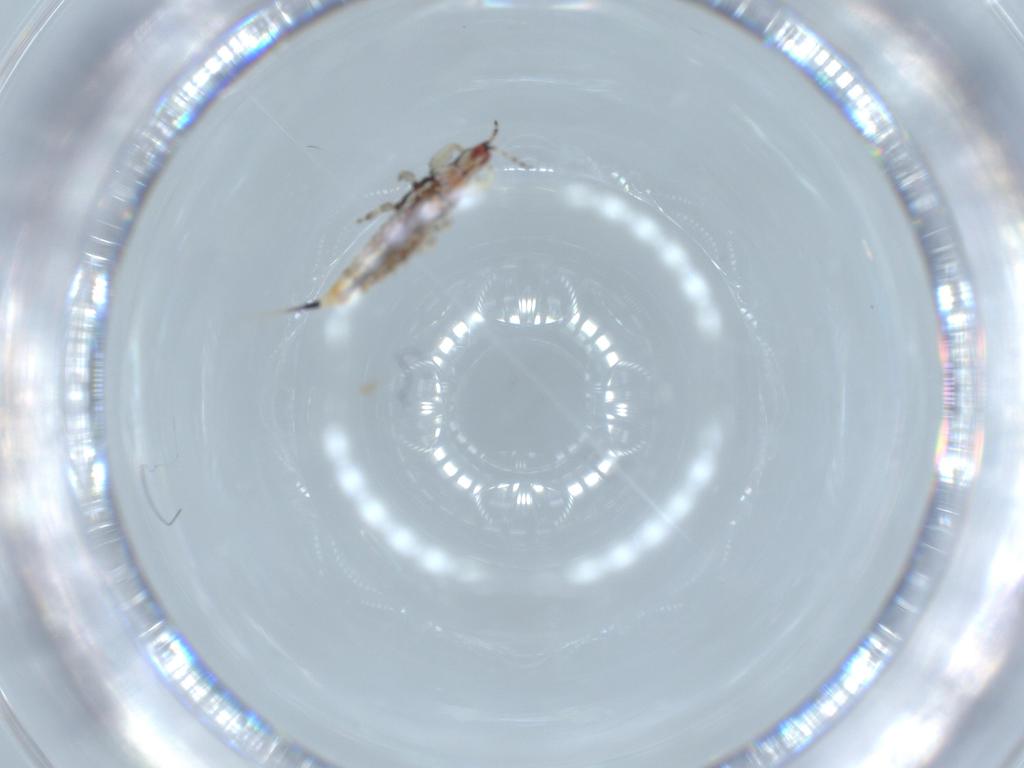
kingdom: Animalia
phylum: Arthropoda
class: Insecta
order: Thysanoptera
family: Phlaeothripidae
